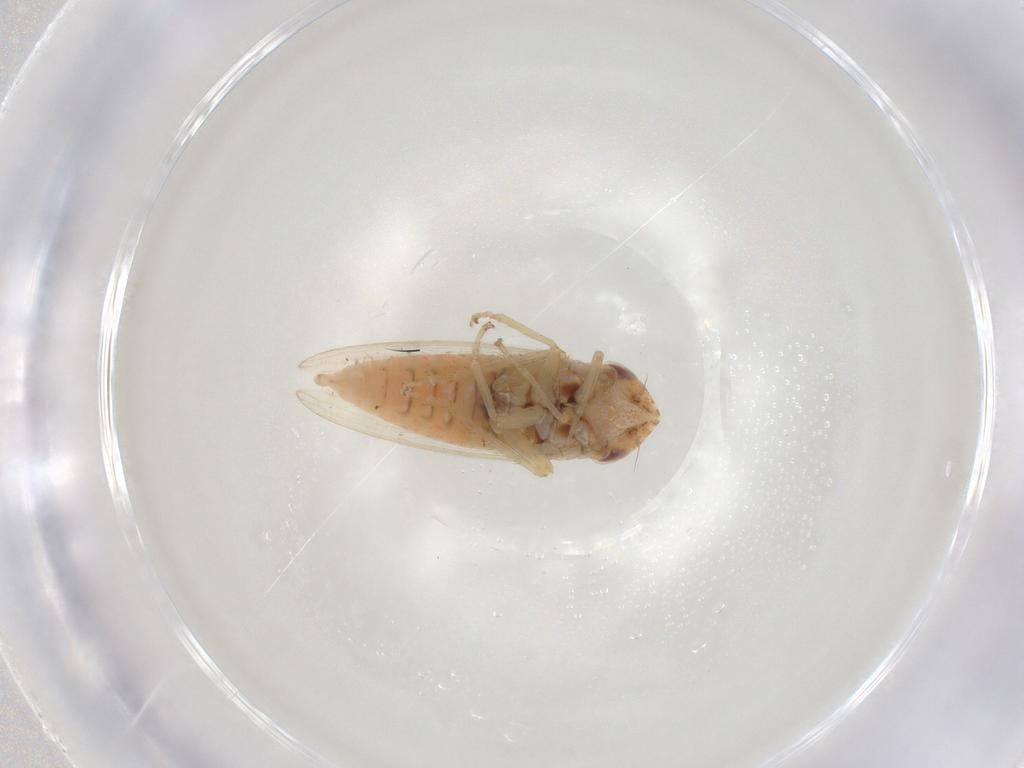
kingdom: Animalia
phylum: Arthropoda
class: Insecta
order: Hemiptera
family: Cicadellidae
